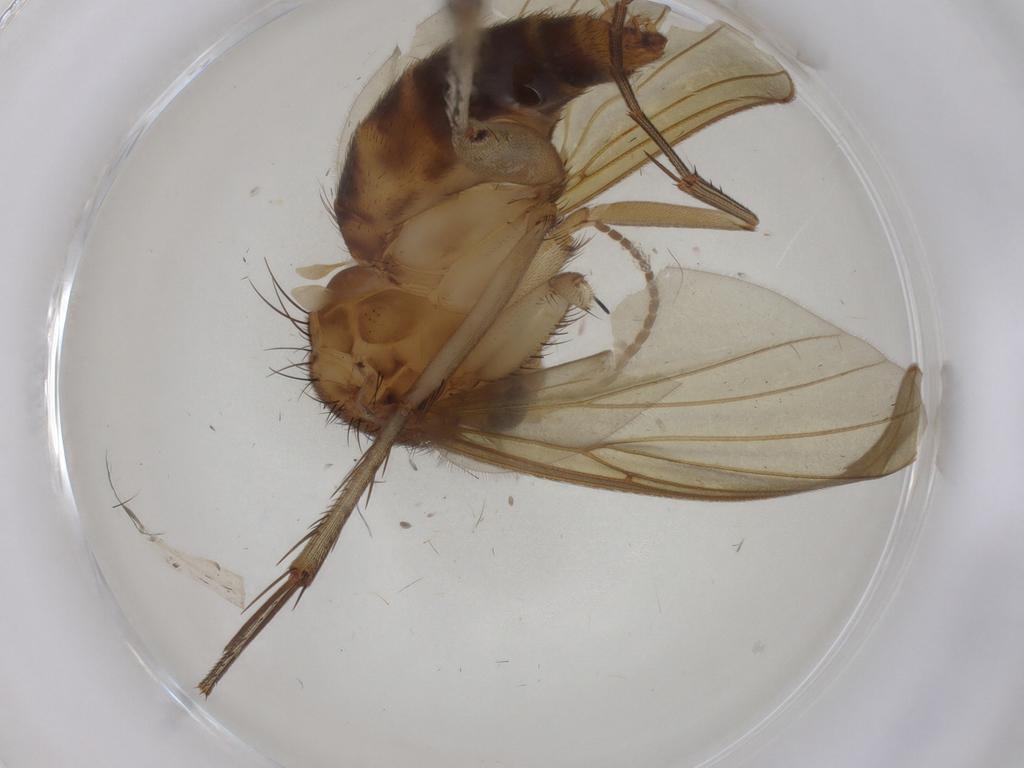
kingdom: Animalia
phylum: Arthropoda
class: Insecta
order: Diptera
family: Cecidomyiidae
